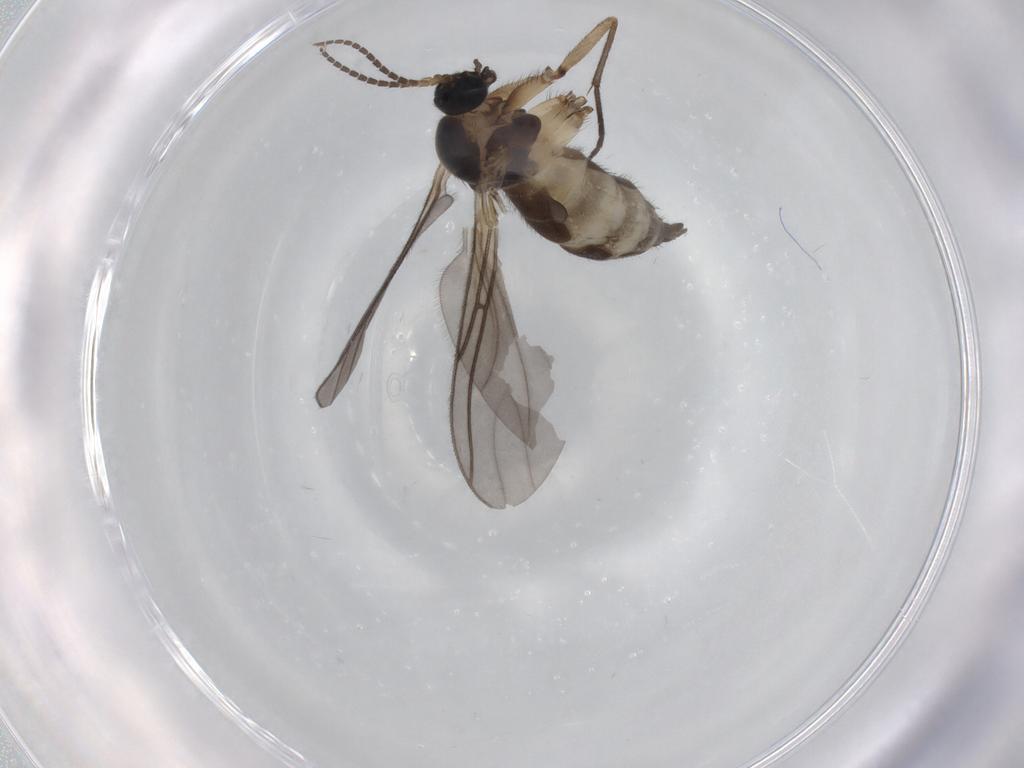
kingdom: Animalia
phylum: Arthropoda
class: Insecta
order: Diptera
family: Sciaridae
